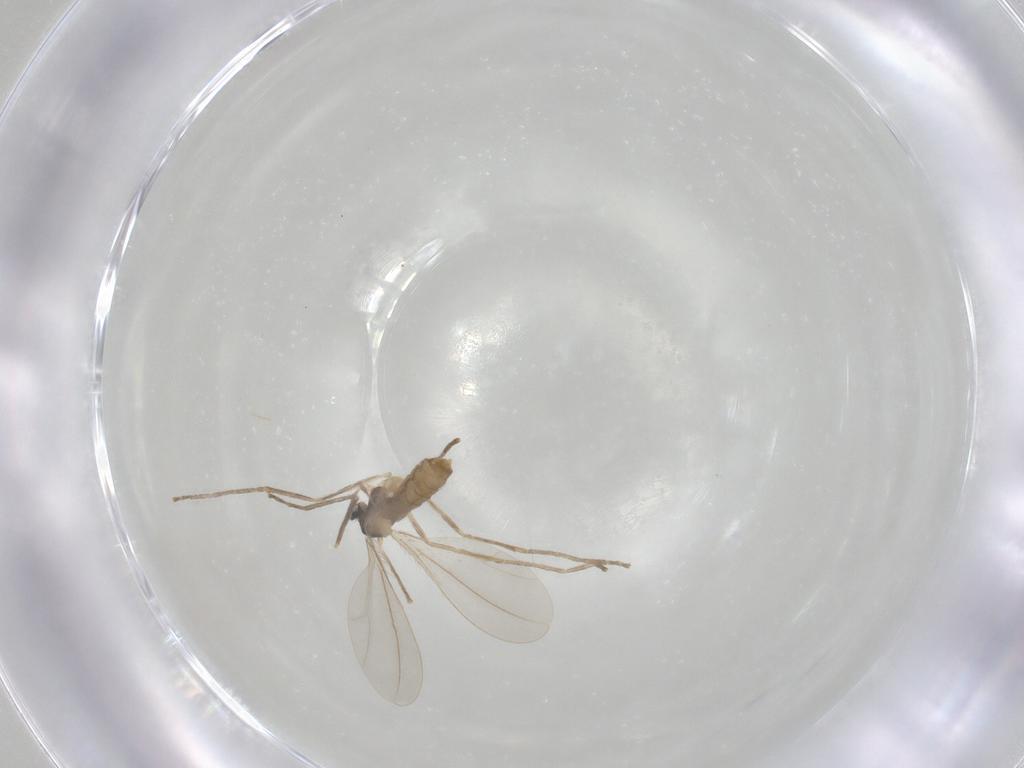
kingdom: Animalia
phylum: Arthropoda
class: Insecta
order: Diptera
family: Cecidomyiidae
